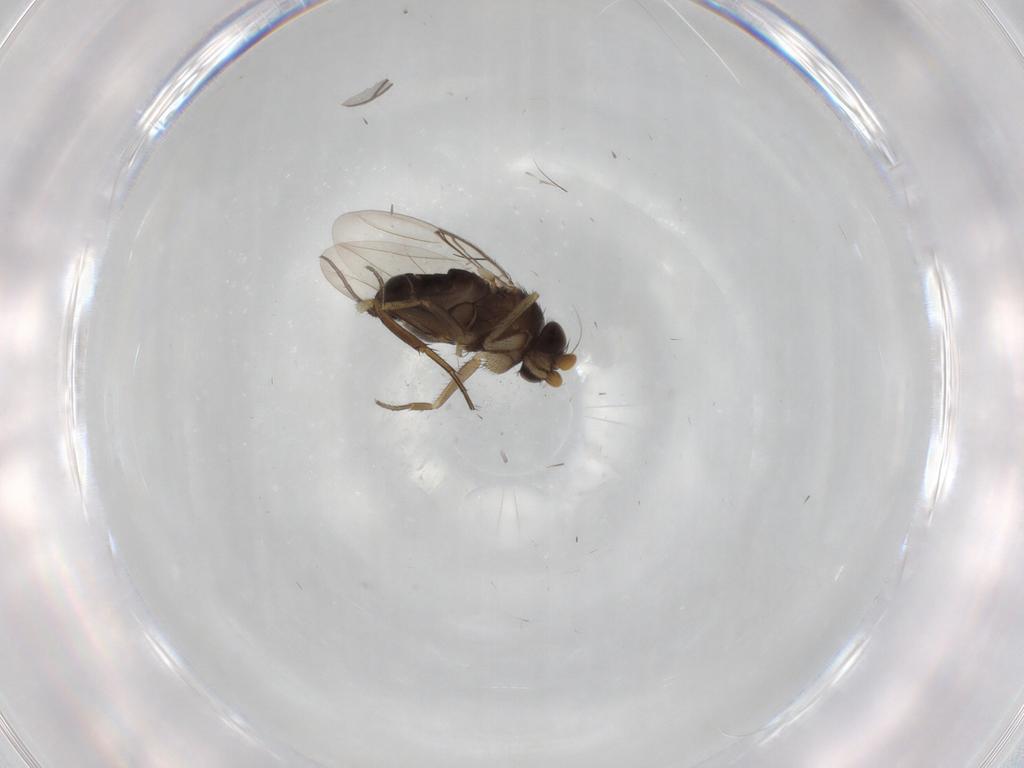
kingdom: Animalia
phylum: Arthropoda
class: Insecta
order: Diptera
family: Phoridae
